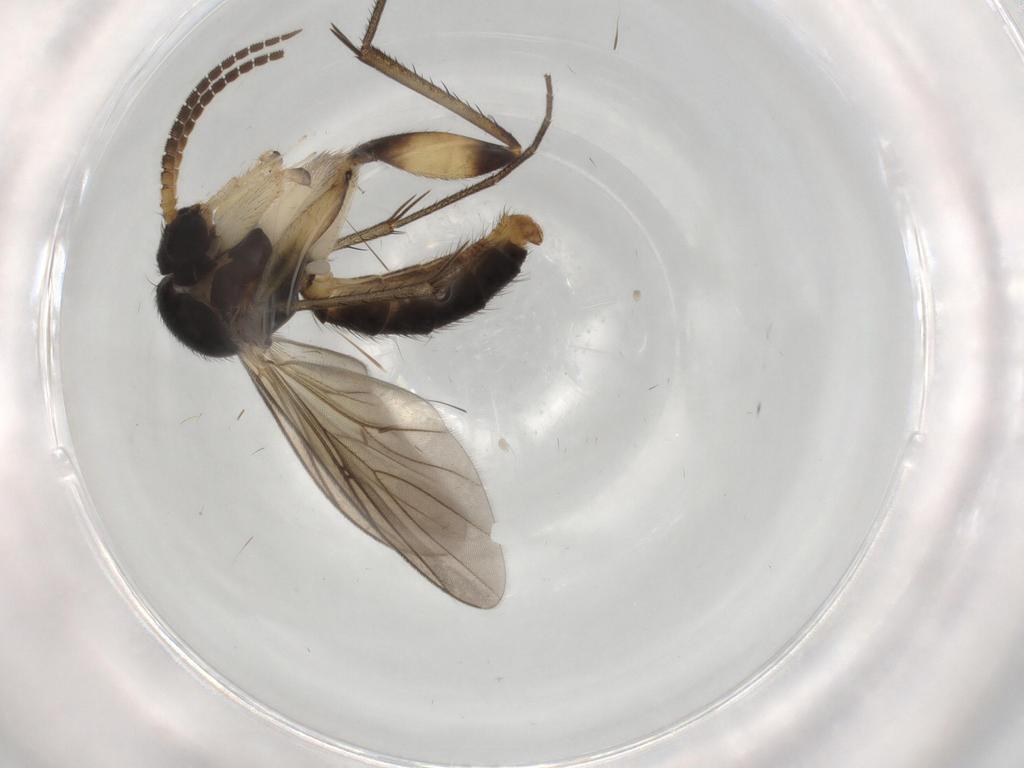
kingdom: Animalia
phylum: Arthropoda
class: Insecta
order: Diptera
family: Chironomidae
